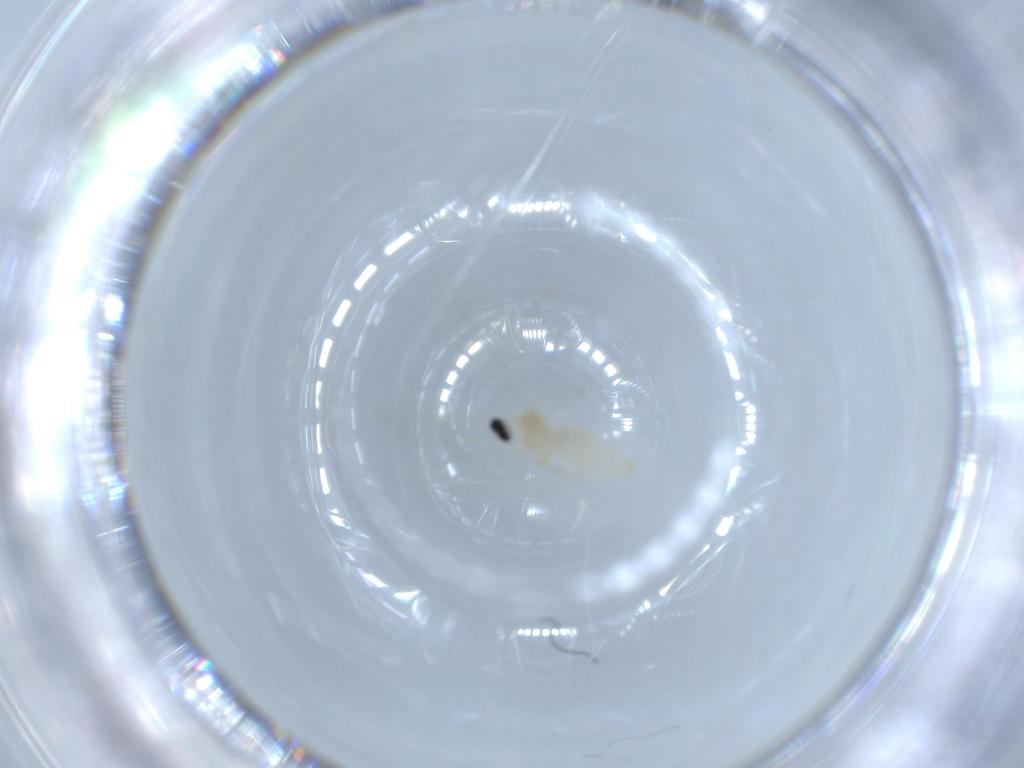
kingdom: Animalia
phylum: Arthropoda
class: Insecta
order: Diptera
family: Cecidomyiidae
